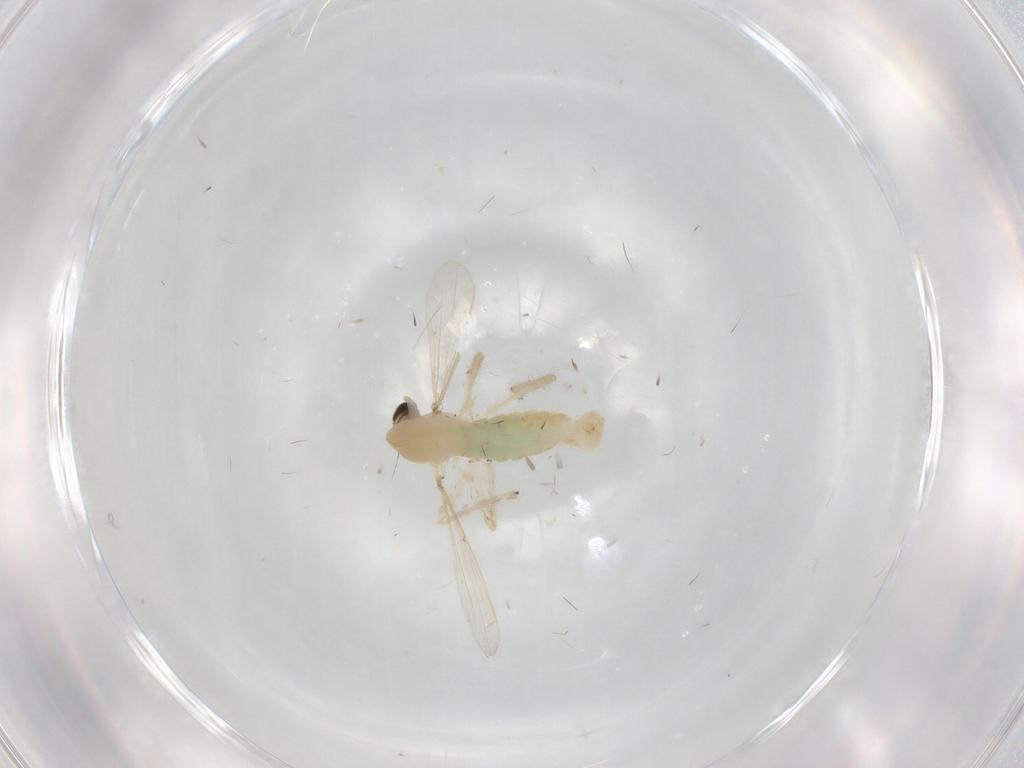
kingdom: Animalia
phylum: Arthropoda
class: Insecta
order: Diptera
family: Chironomidae
